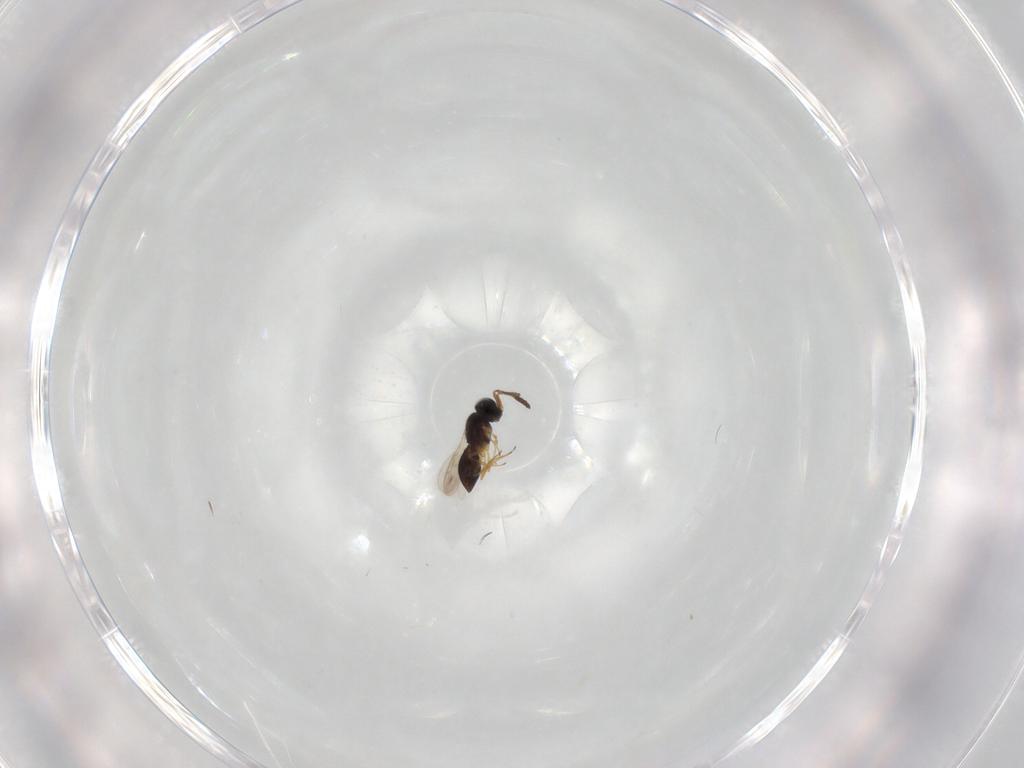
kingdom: Animalia
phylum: Arthropoda
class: Insecta
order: Hymenoptera
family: Scelionidae
